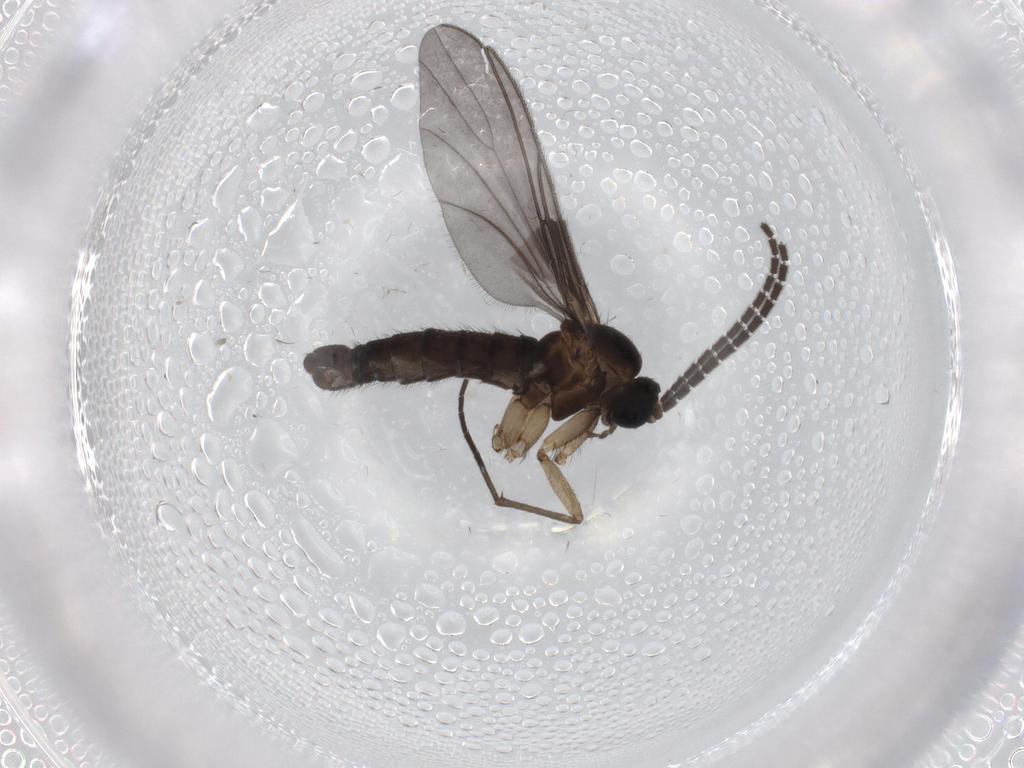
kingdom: Animalia
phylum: Arthropoda
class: Insecta
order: Diptera
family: Sciaridae
